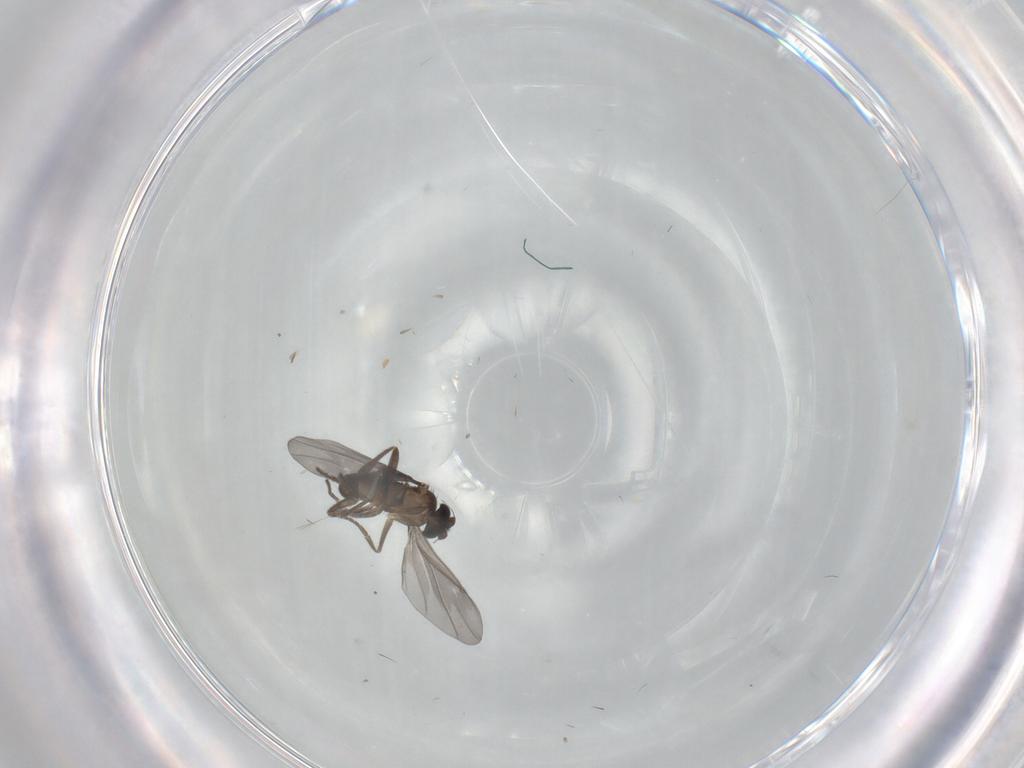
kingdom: Animalia
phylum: Arthropoda
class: Insecta
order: Diptera
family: Phoridae
